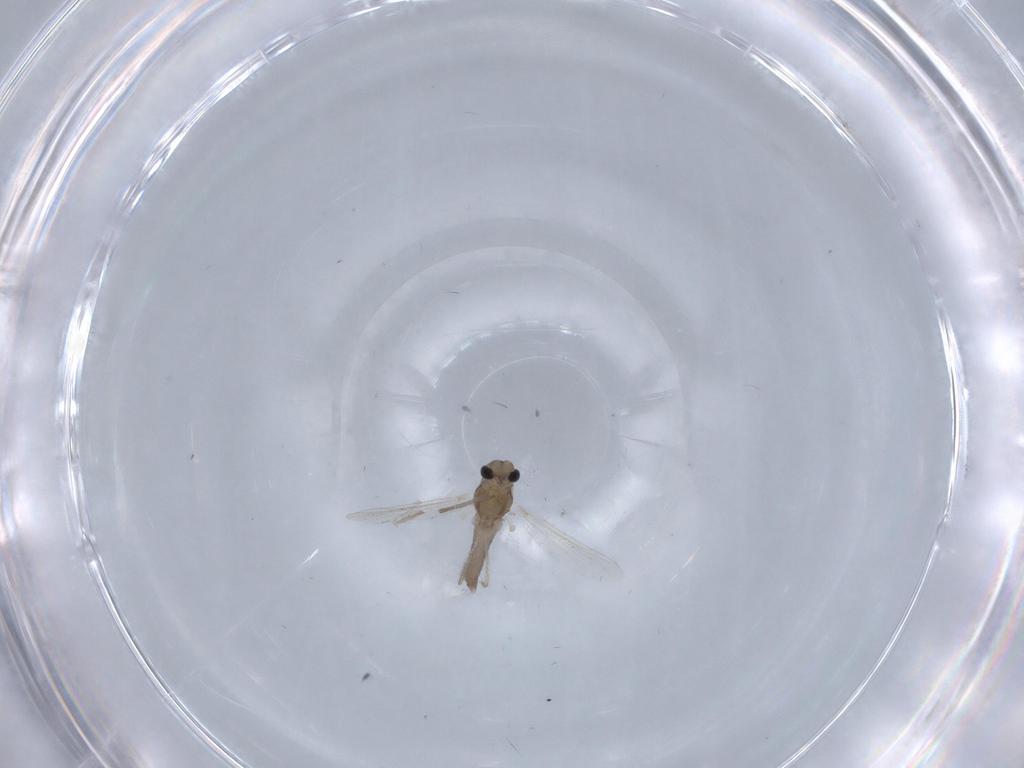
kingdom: Animalia
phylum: Arthropoda
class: Insecta
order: Diptera
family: Chironomidae
